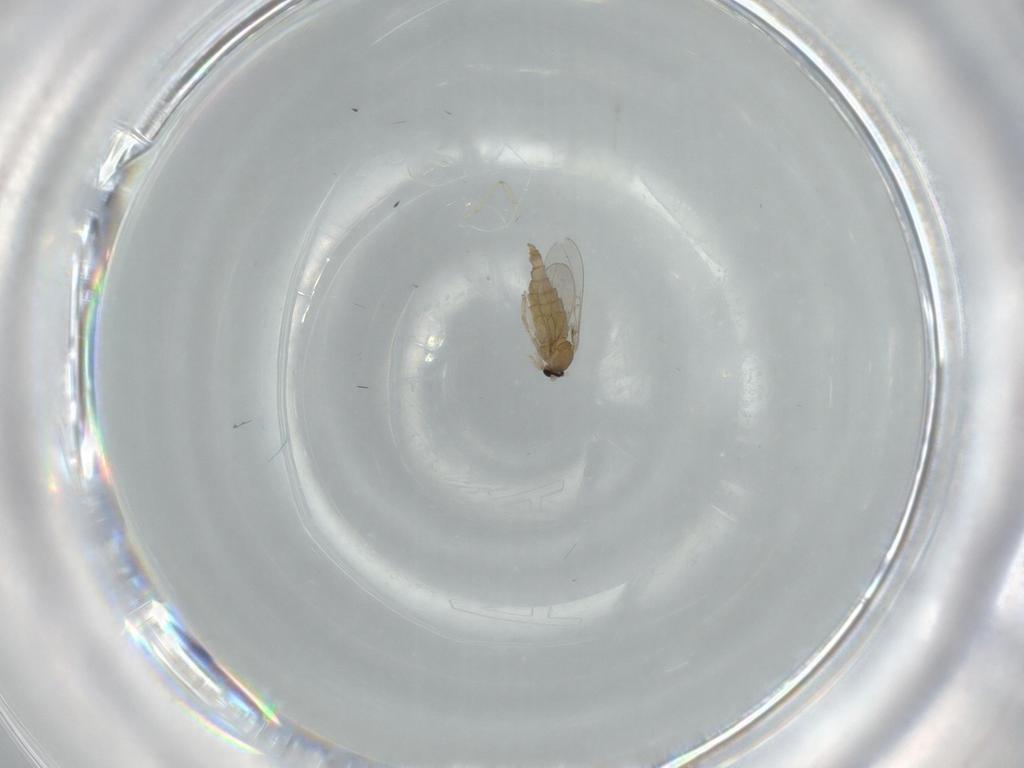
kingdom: Animalia
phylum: Arthropoda
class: Insecta
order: Diptera
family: Cecidomyiidae
